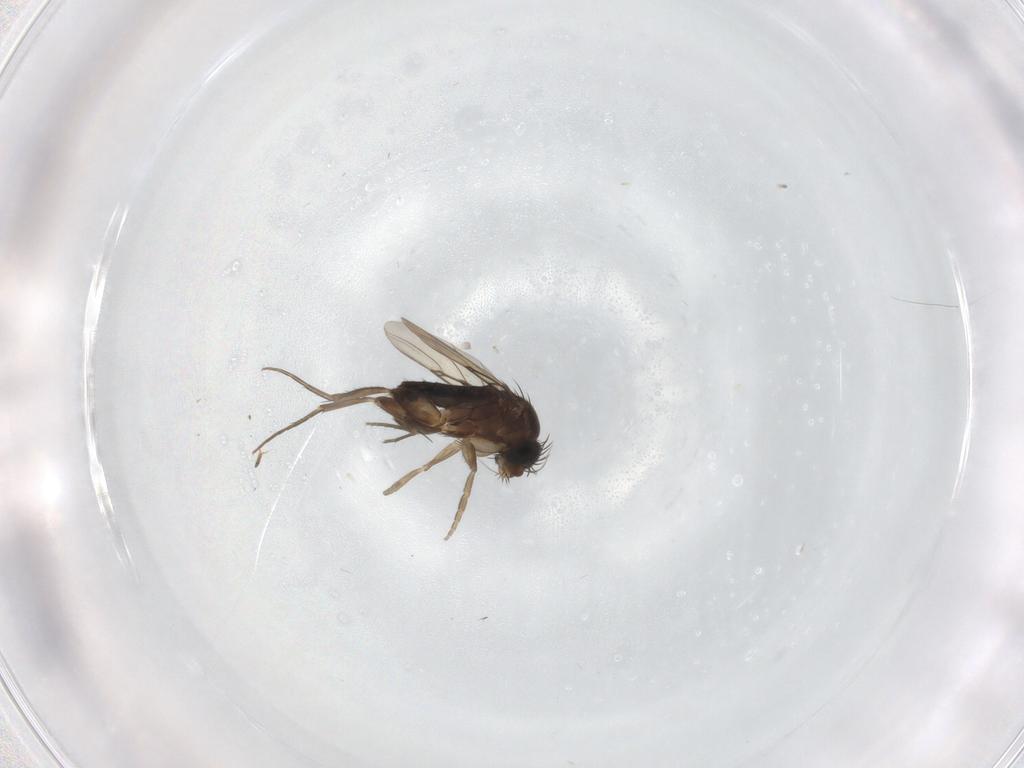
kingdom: Animalia
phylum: Arthropoda
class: Insecta
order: Diptera
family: Phoridae
